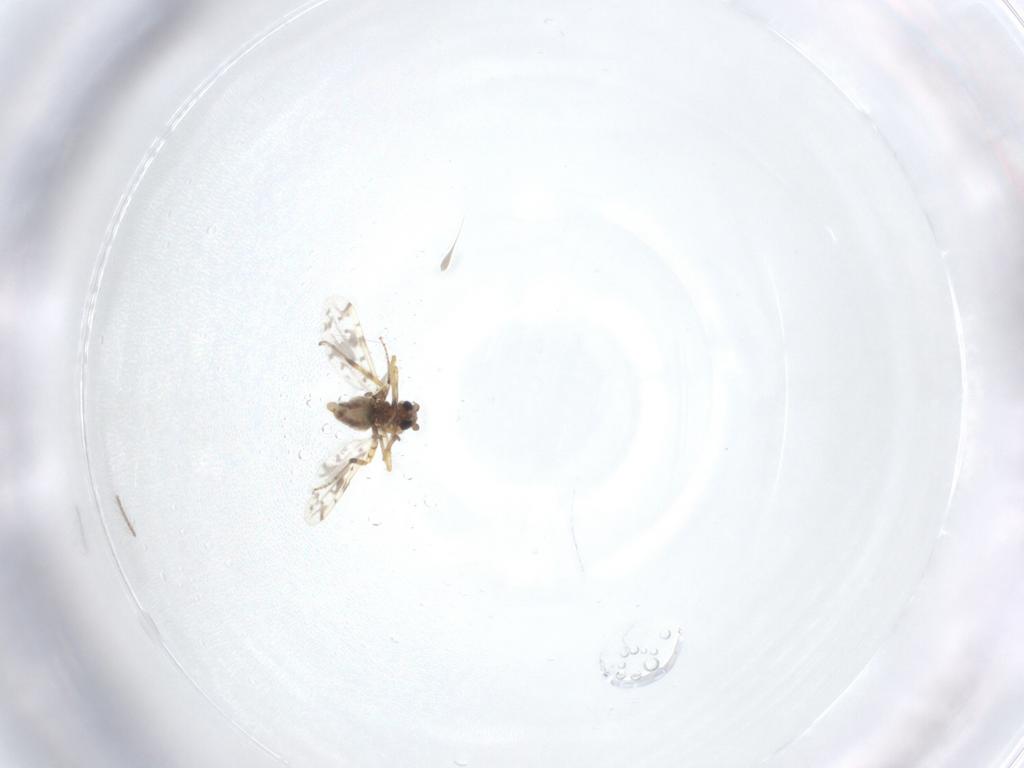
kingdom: Animalia
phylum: Arthropoda
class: Insecta
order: Diptera
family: Ceratopogonidae
